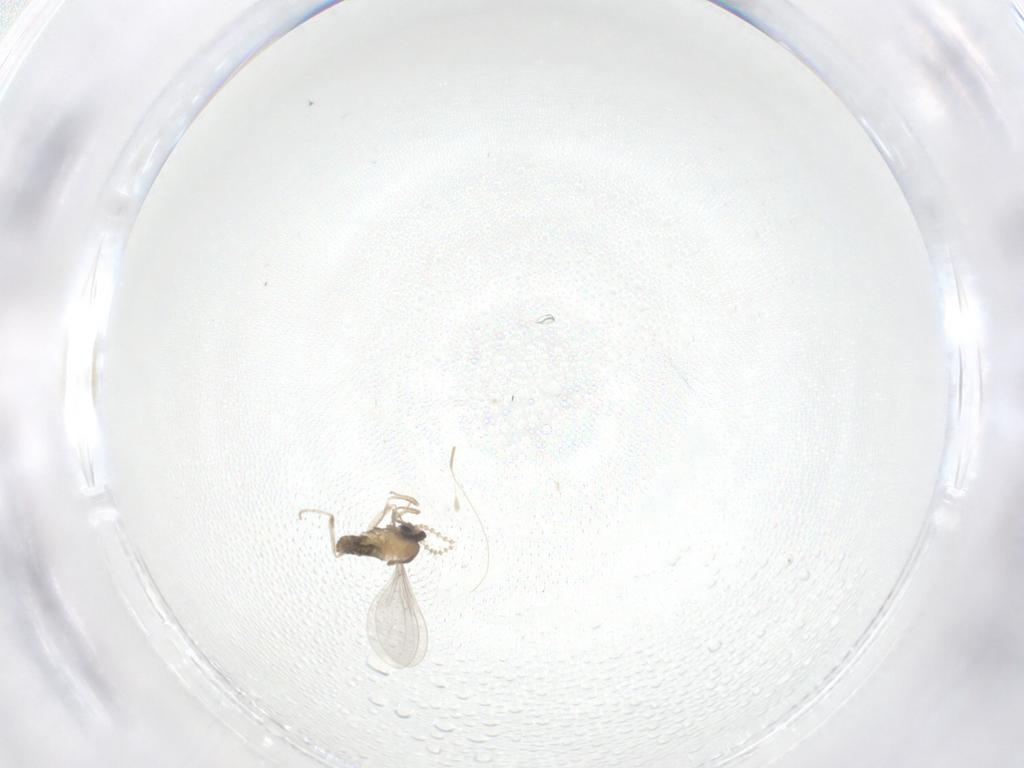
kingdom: Animalia
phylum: Arthropoda
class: Insecta
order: Diptera
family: Cecidomyiidae
